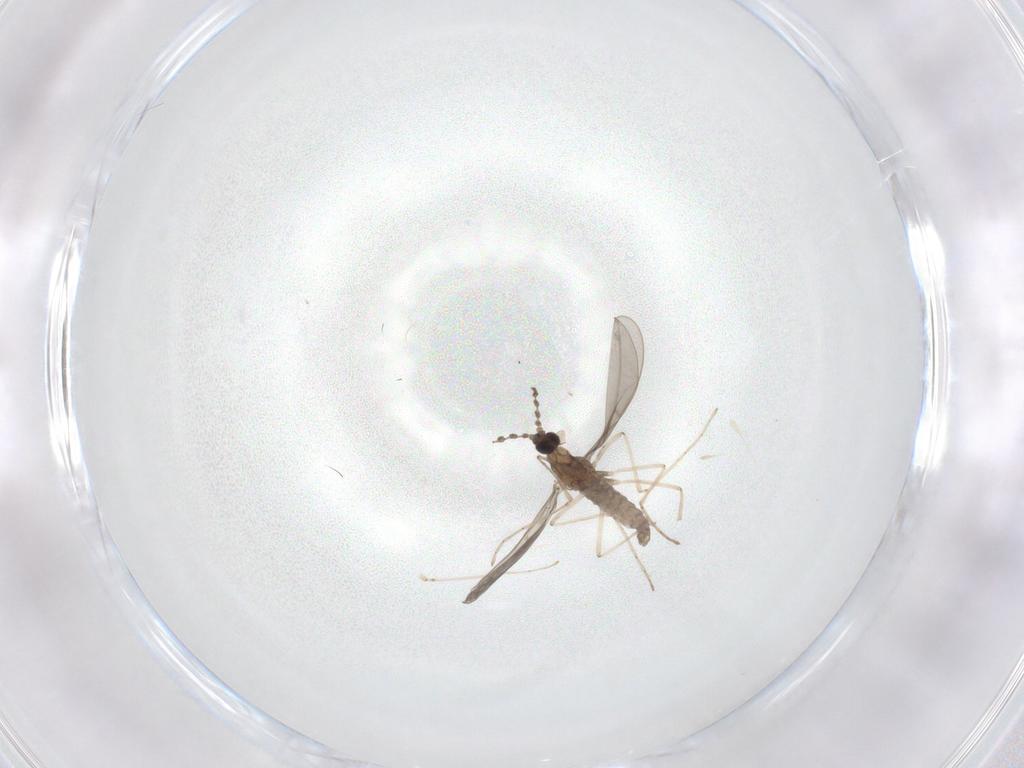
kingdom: Animalia
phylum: Arthropoda
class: Insecta
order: Diptera
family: Cecidomyiidae
